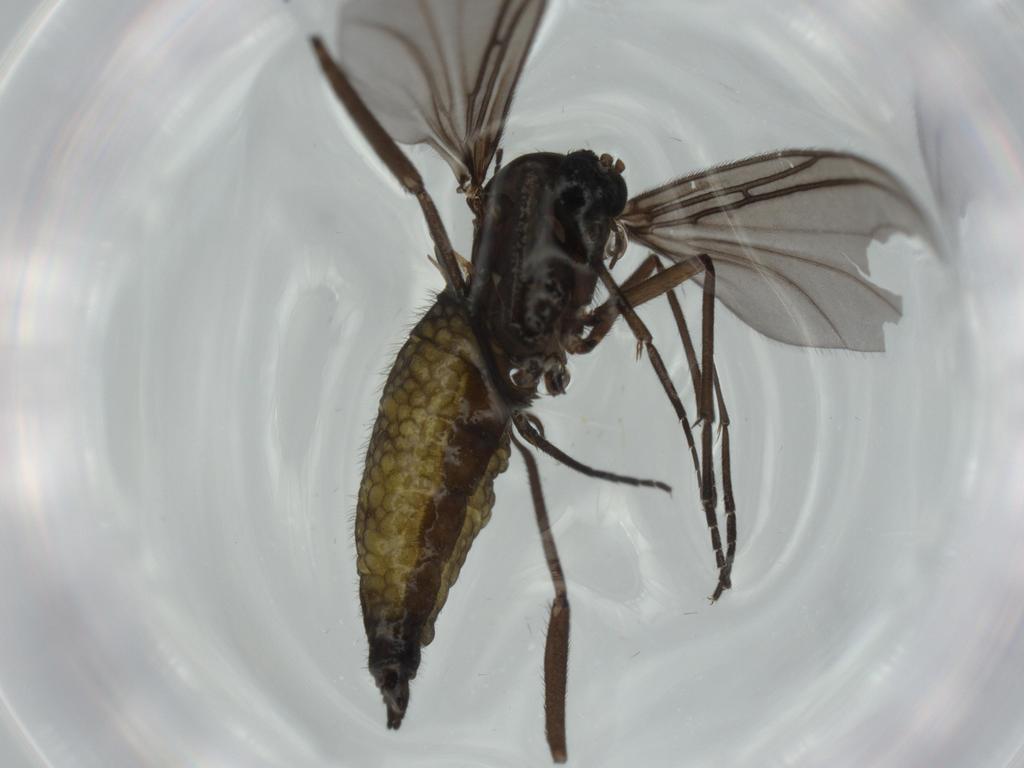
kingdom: Animalia
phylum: Arthropoda
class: Insecta
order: Diptera
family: Sciaridae
